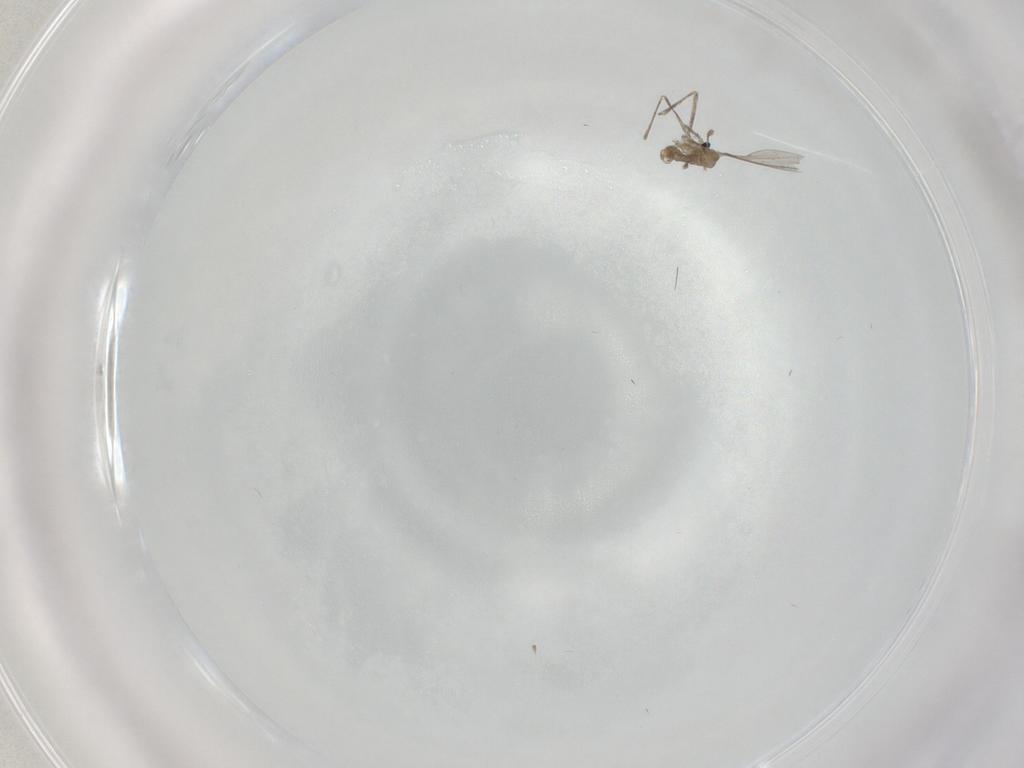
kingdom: Animalia
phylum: Arthropoda
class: Insecta
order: Diptera
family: Cecidomyiidae
